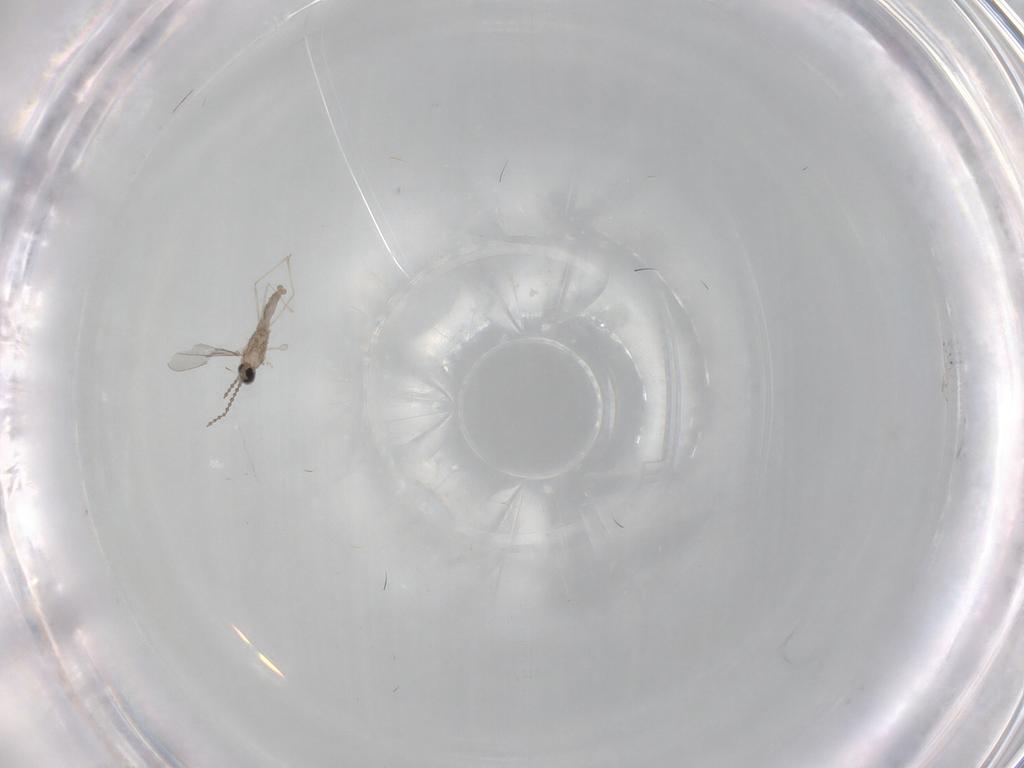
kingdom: Animalia
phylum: Arthropoda
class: Insecta
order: Diptera
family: Cecidomyiidae
